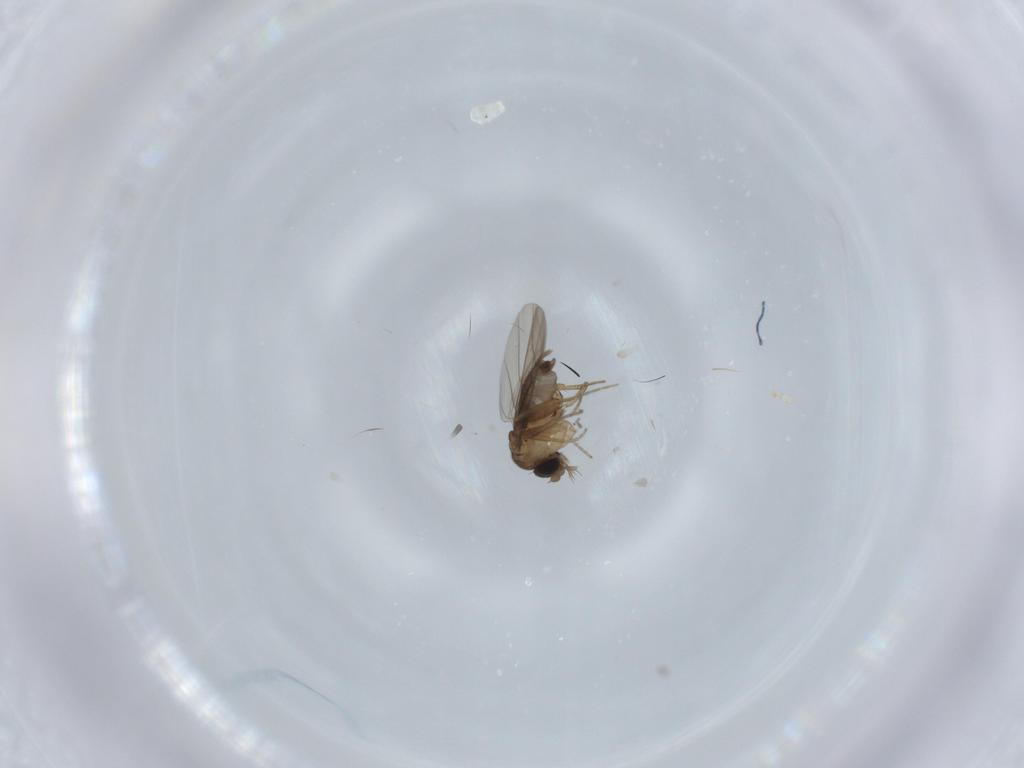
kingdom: Animalia
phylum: Arthropoda
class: Insecta
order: Diptera
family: Cecidomyiidae
